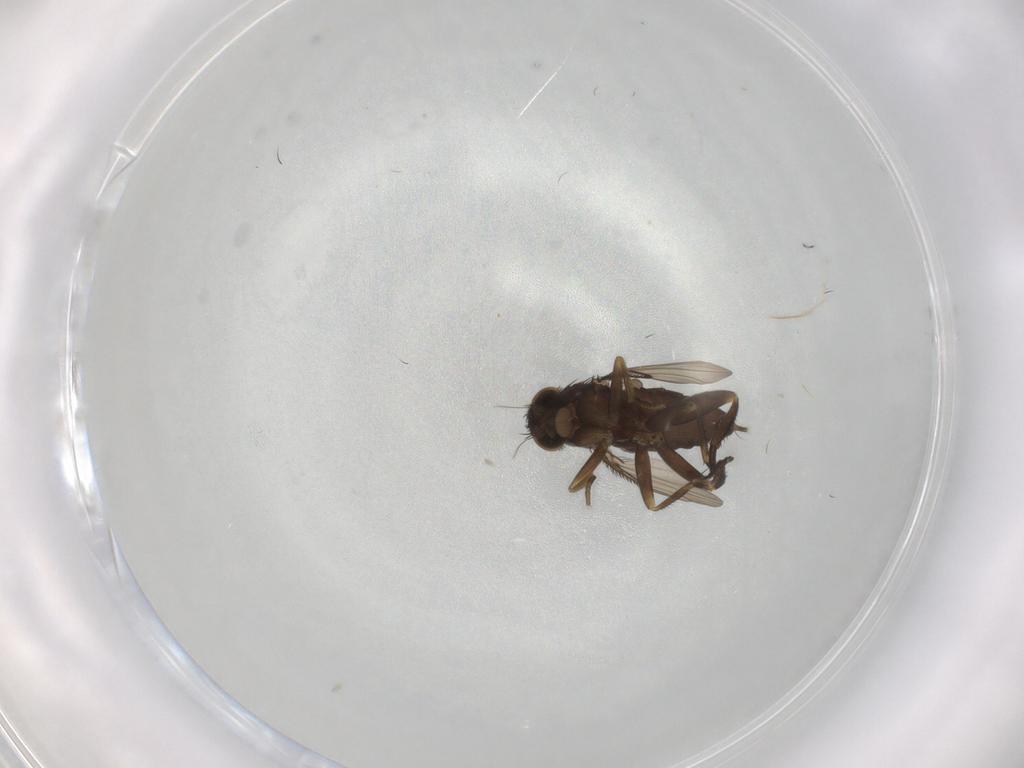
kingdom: Animalia
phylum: Arthropoda
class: Insecta
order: Diptera
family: Phoridae
